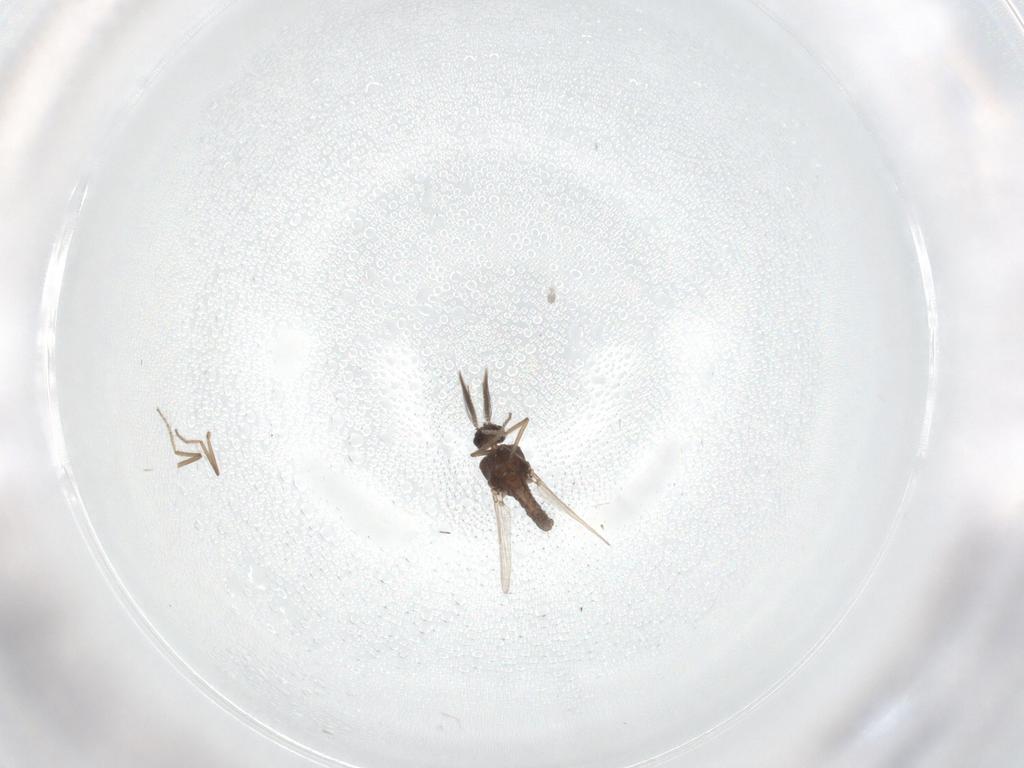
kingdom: Animalia
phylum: Arthropoda
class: Insecta
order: Diptera
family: Ceratopogonidae
